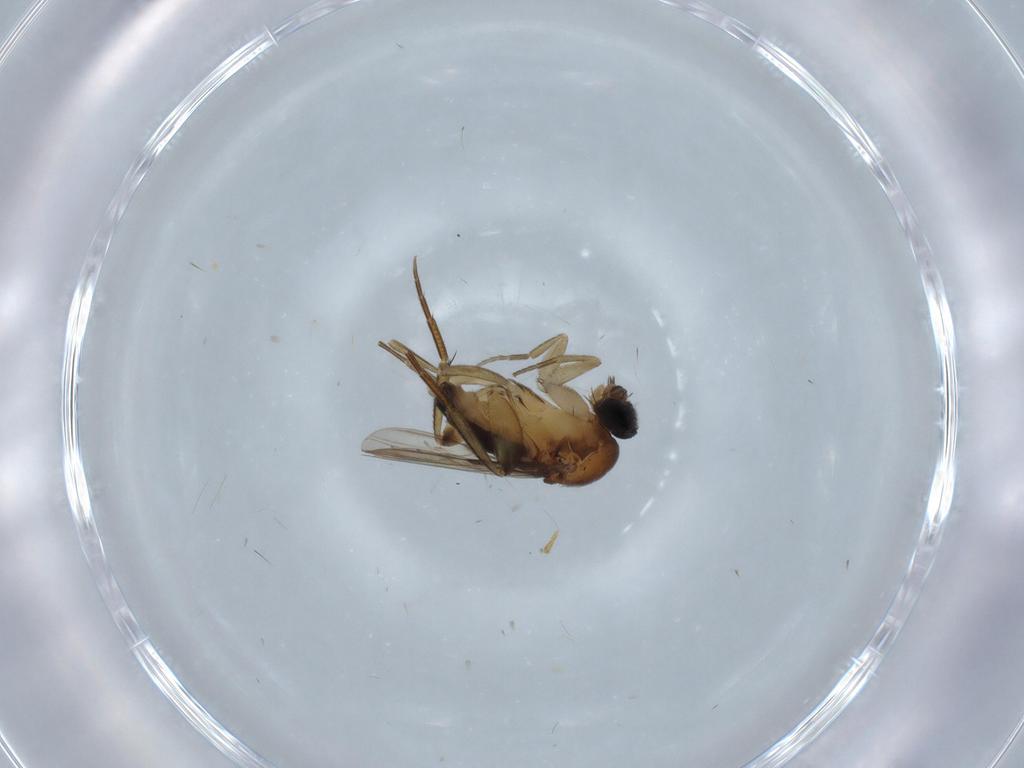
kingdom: Animalia
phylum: Arthropoda
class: Insecta
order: Diptera
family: Phoridae
